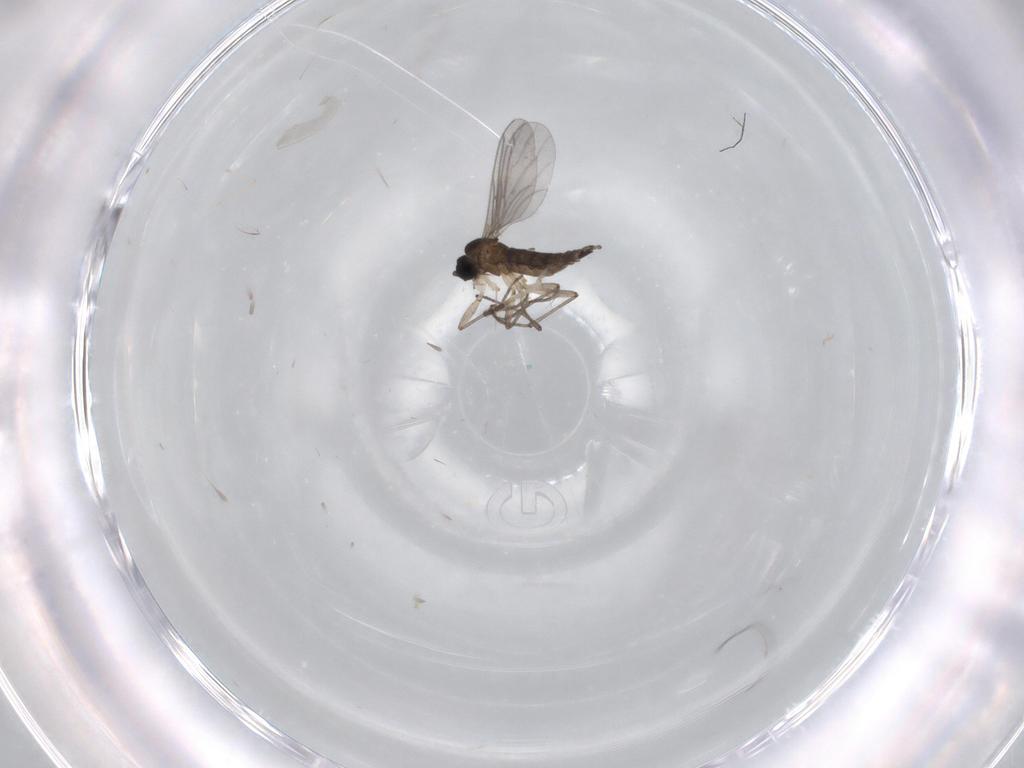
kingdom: Animalia
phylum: Arthropoda
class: Insecta
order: Diptera
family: Sciaridae
